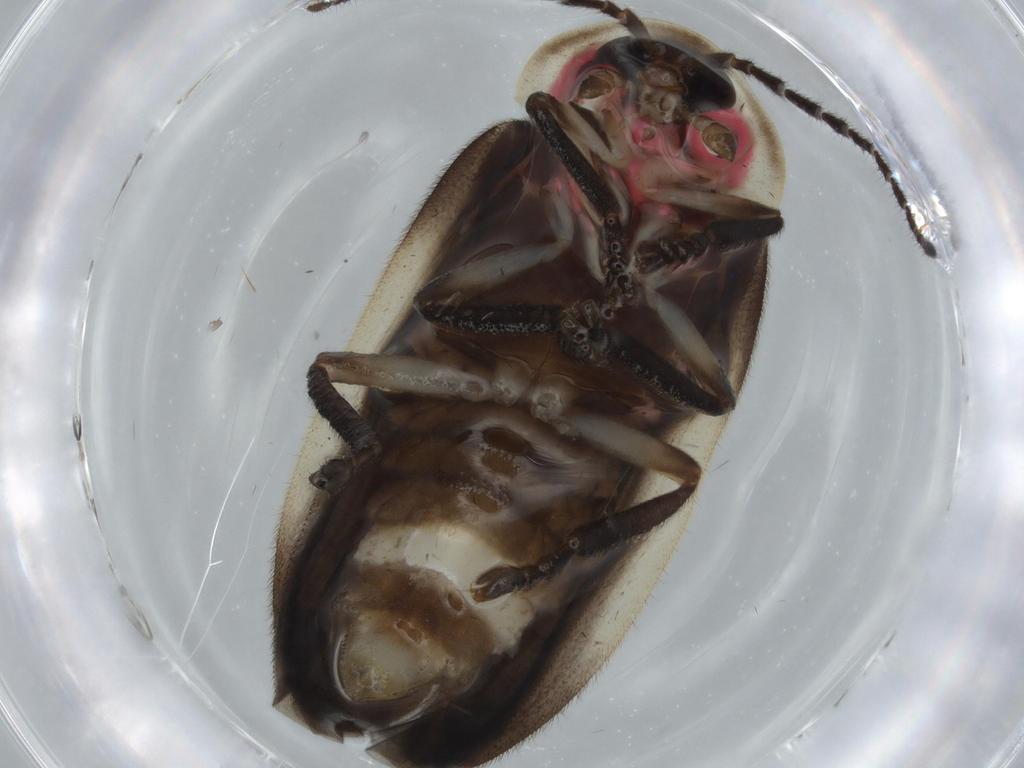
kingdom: Animalia
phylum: Arthropoda
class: Insecta
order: Coleoptera
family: Lampyridae
